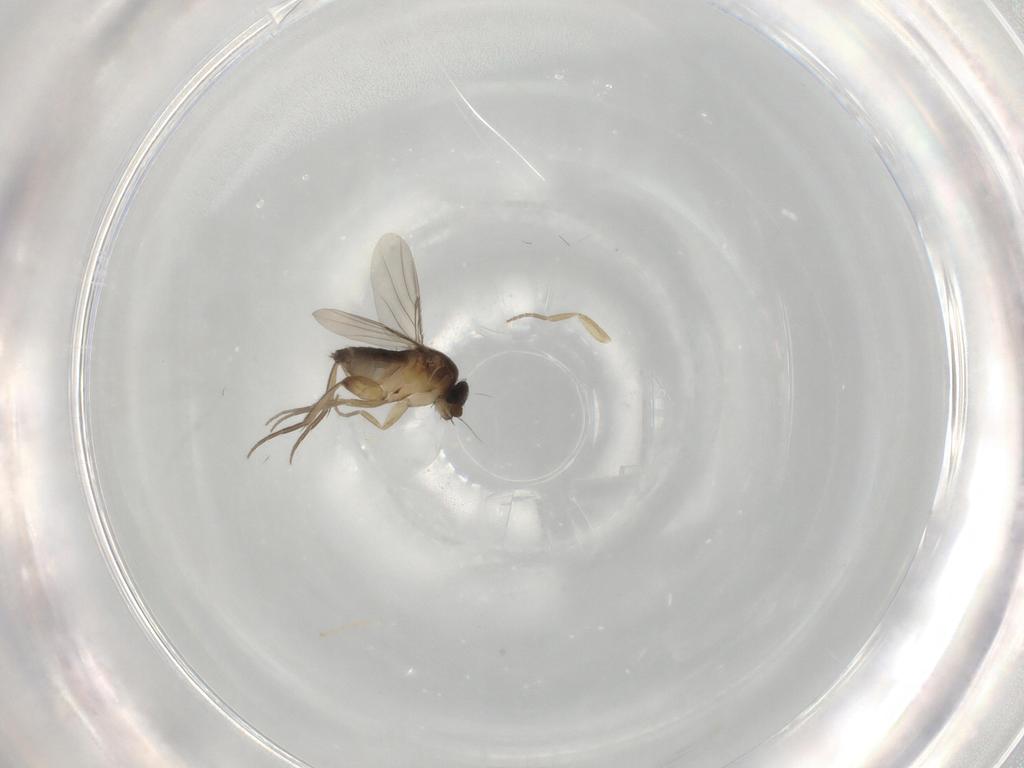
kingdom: Animalia
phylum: Arthropoda
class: Insecta
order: Diptera
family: Phoridae
